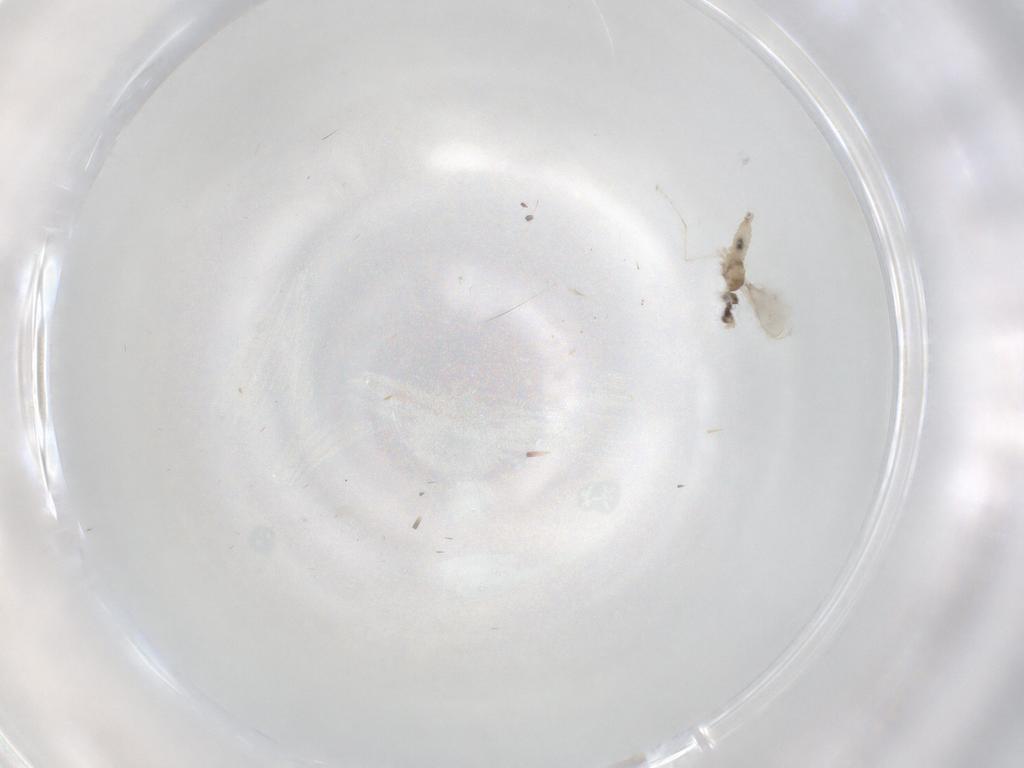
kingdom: Animalia
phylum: Arthropoda
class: Insecta
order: Diptera
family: Cecidomyiidae
